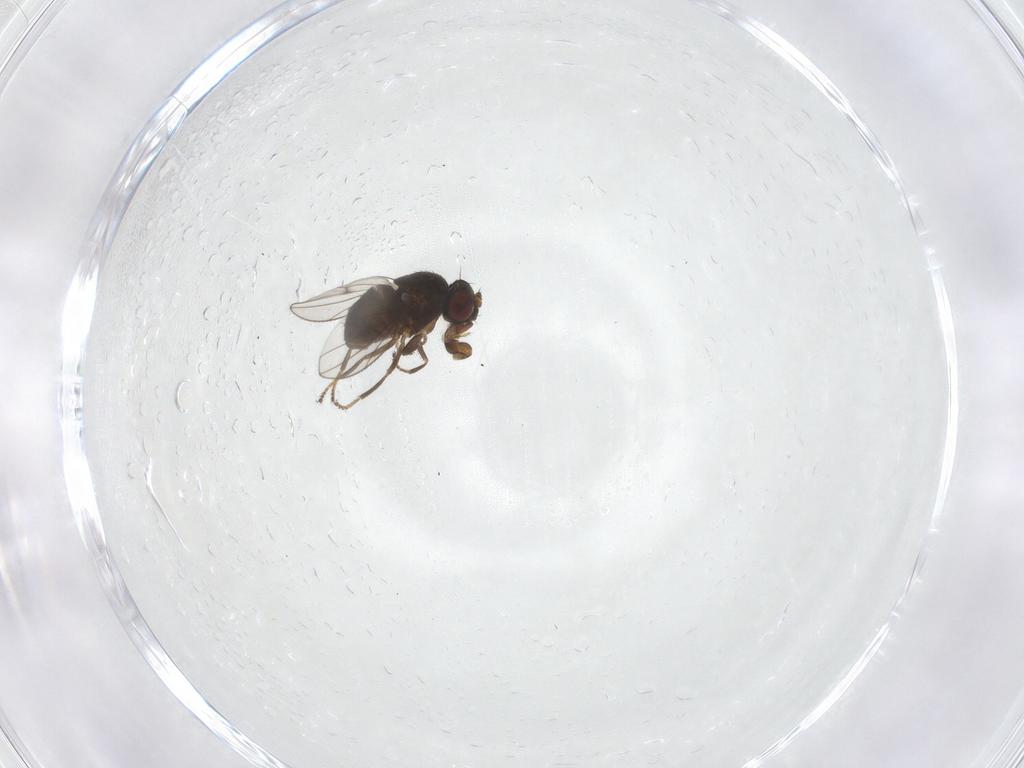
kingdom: Animalia
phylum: Arthropoda
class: Insecta
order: Diptera
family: Ephydridae
